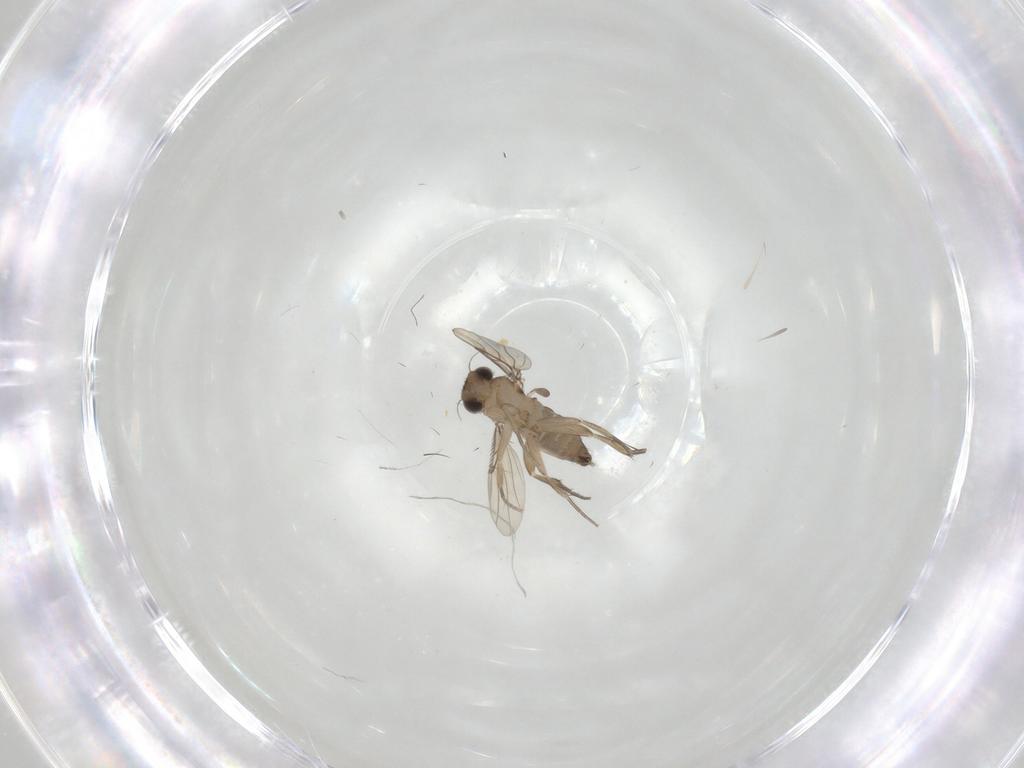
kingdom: Animalia
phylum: Arthropoda
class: Insecta
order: Diptera
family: Phoridae
